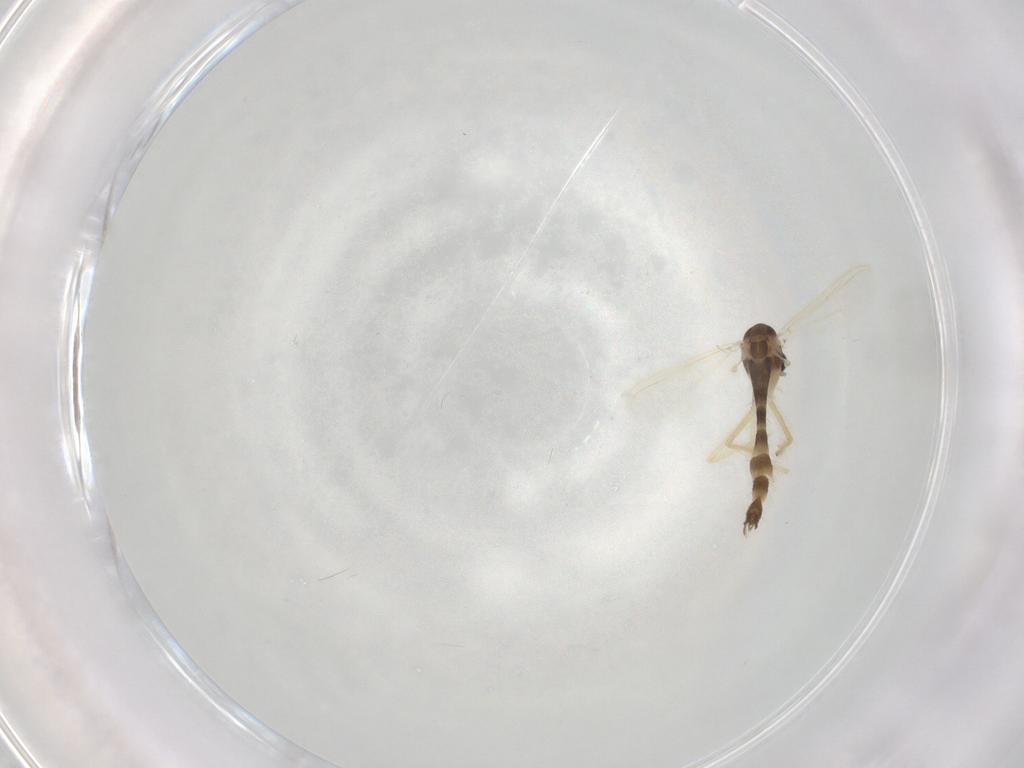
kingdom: Animalia
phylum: Arthropoda
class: Insecta
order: Diptera
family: Chironomidae
